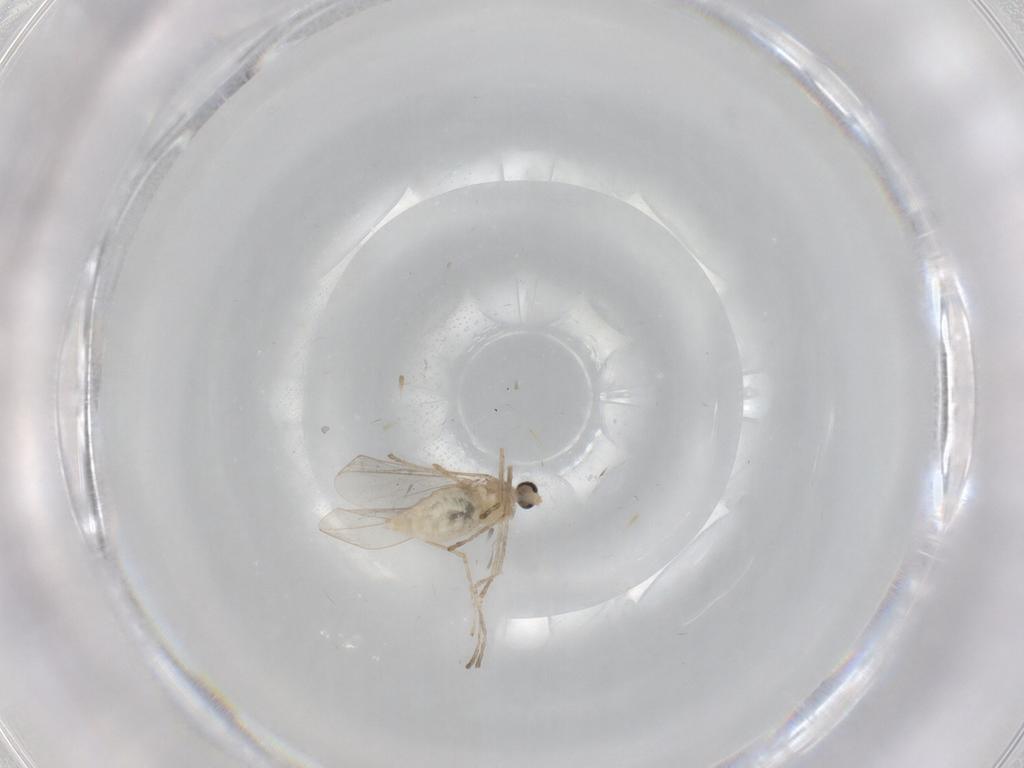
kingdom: Animalia
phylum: Arthropoda
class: Insecta
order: Diptera
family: Cecidomyiidae
